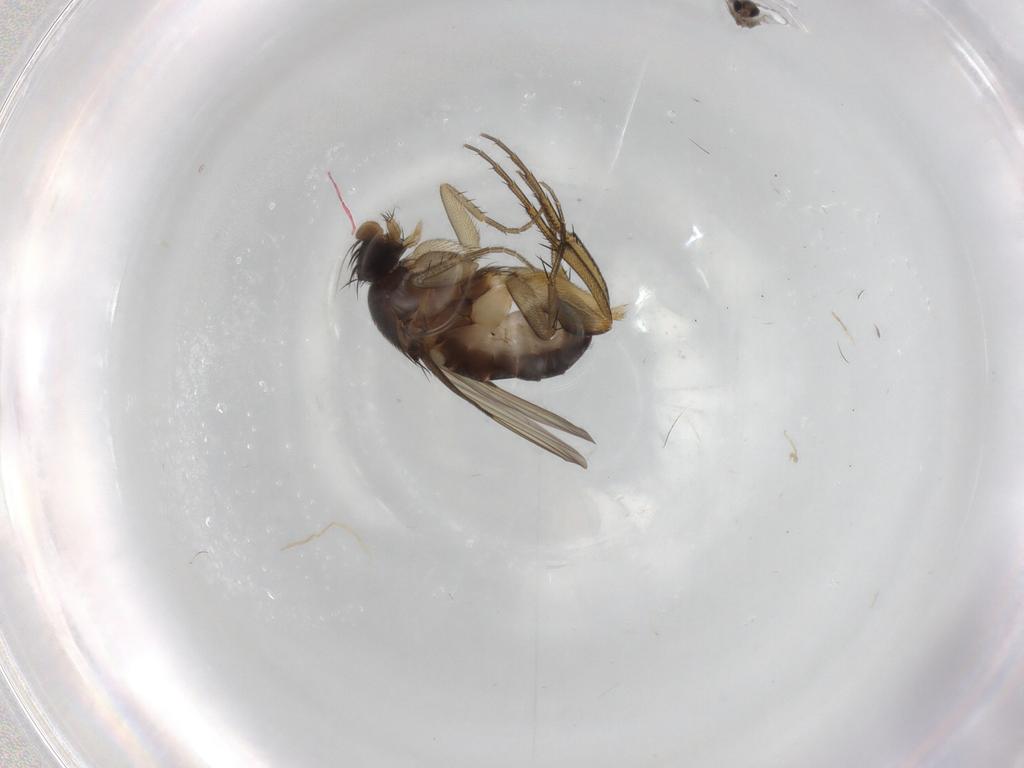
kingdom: Animalia
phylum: Arthropoda
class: Insecta
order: Diptera
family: Phoridae
